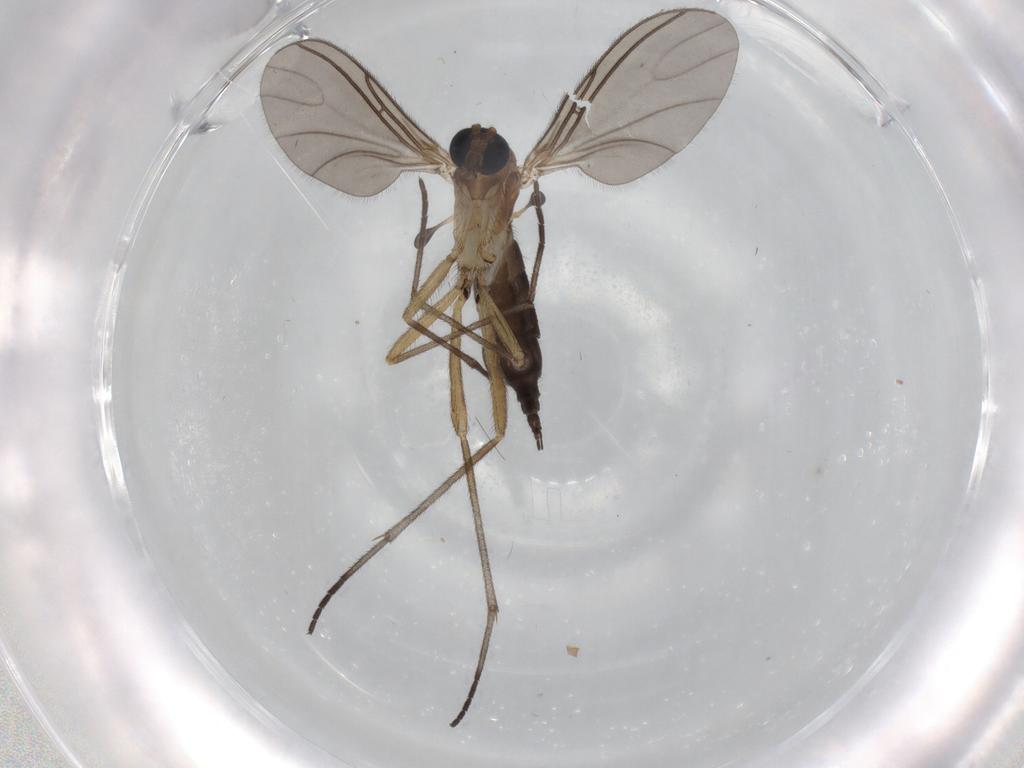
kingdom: Animalia
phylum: Arthropoda
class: Insecta
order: Diptera
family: Sciaridae
